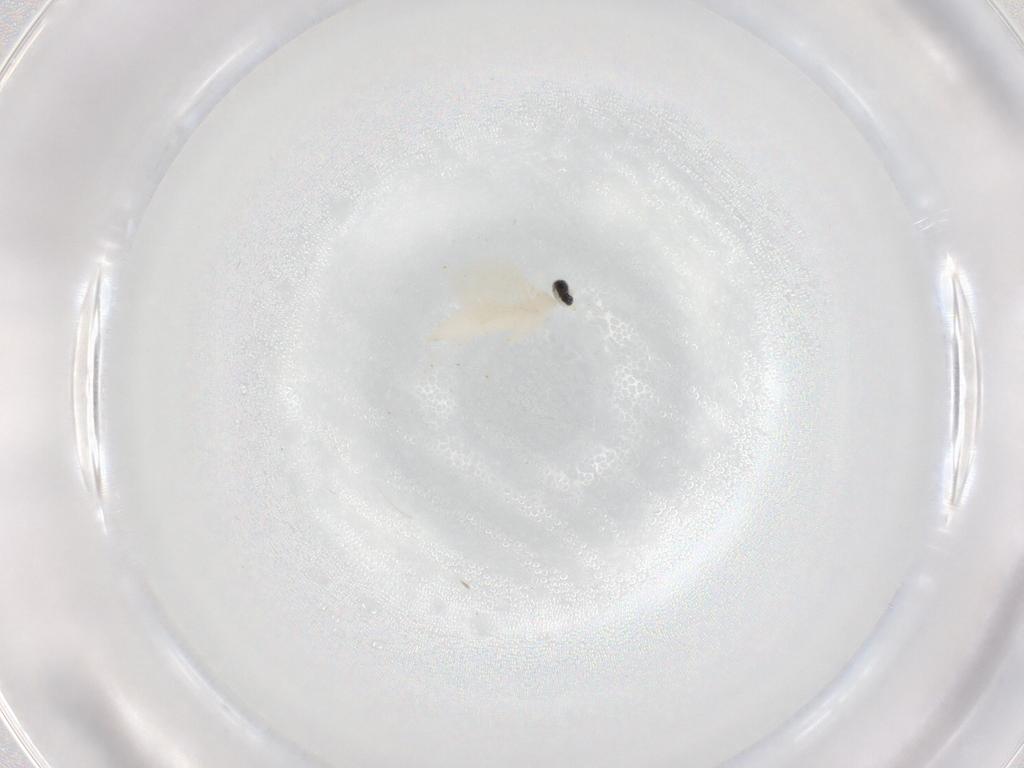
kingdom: Animalia
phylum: Arthropoda
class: Insecta
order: Diptera
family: Cecidomyiidae
